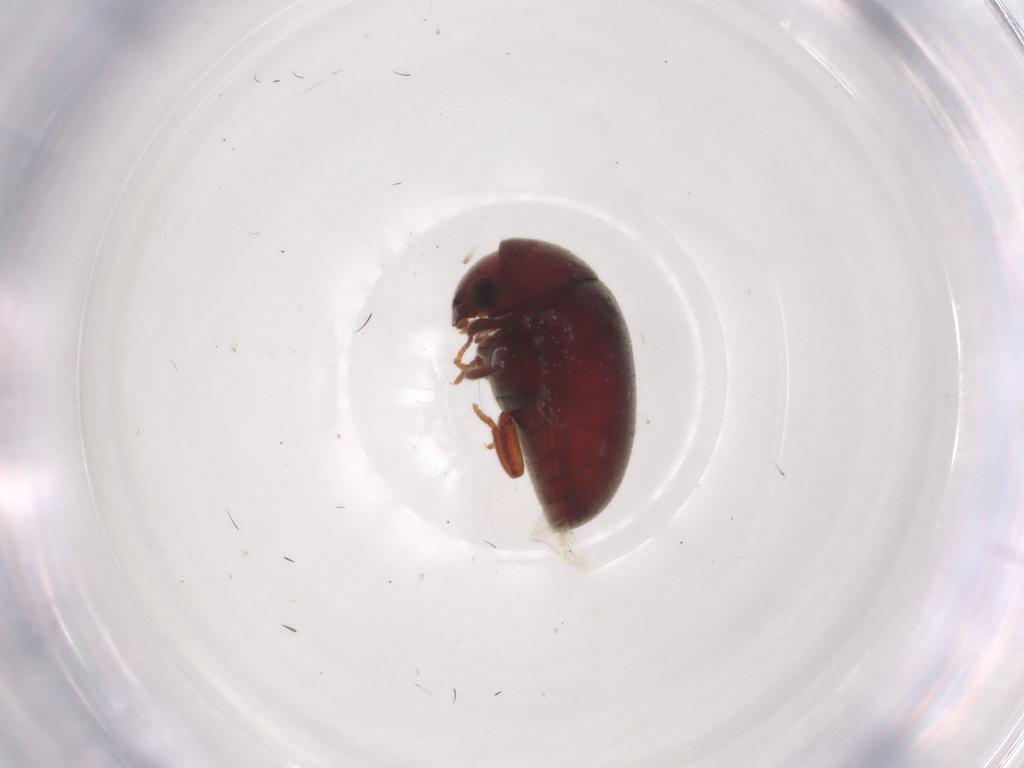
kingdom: Animalia
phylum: Arthropoda
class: Insecta
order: Coleoptera
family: Ptinidae
